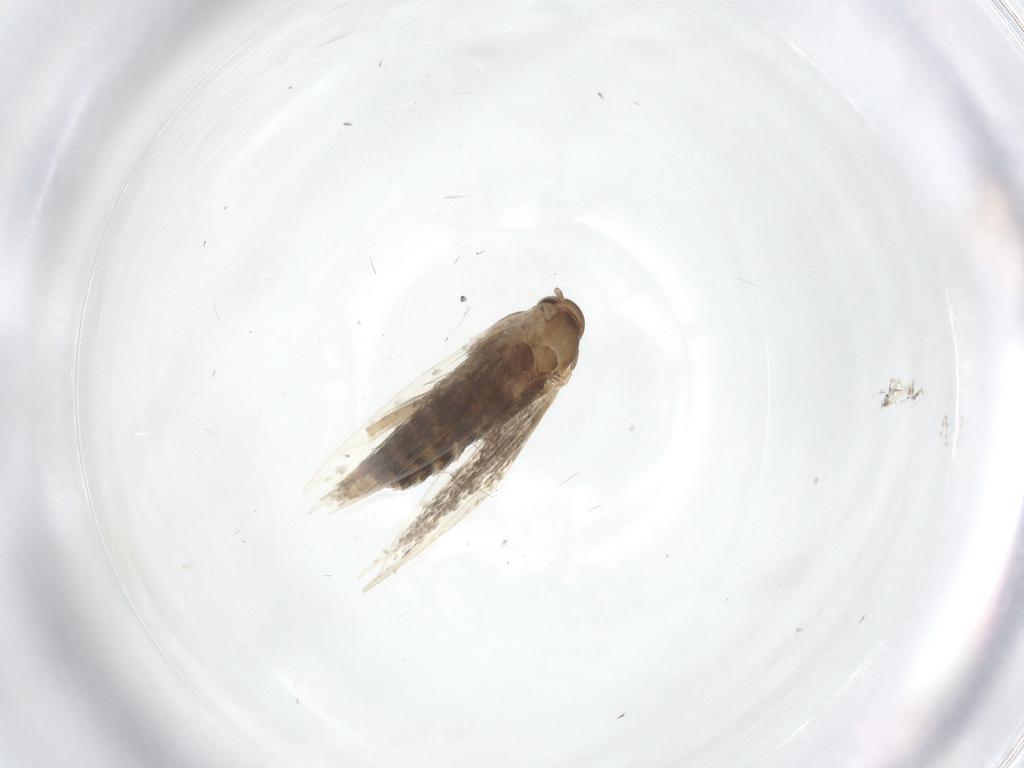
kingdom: Animalia
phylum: Arthropoda
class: Insecta
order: Lepidoptera
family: Elachistidae
